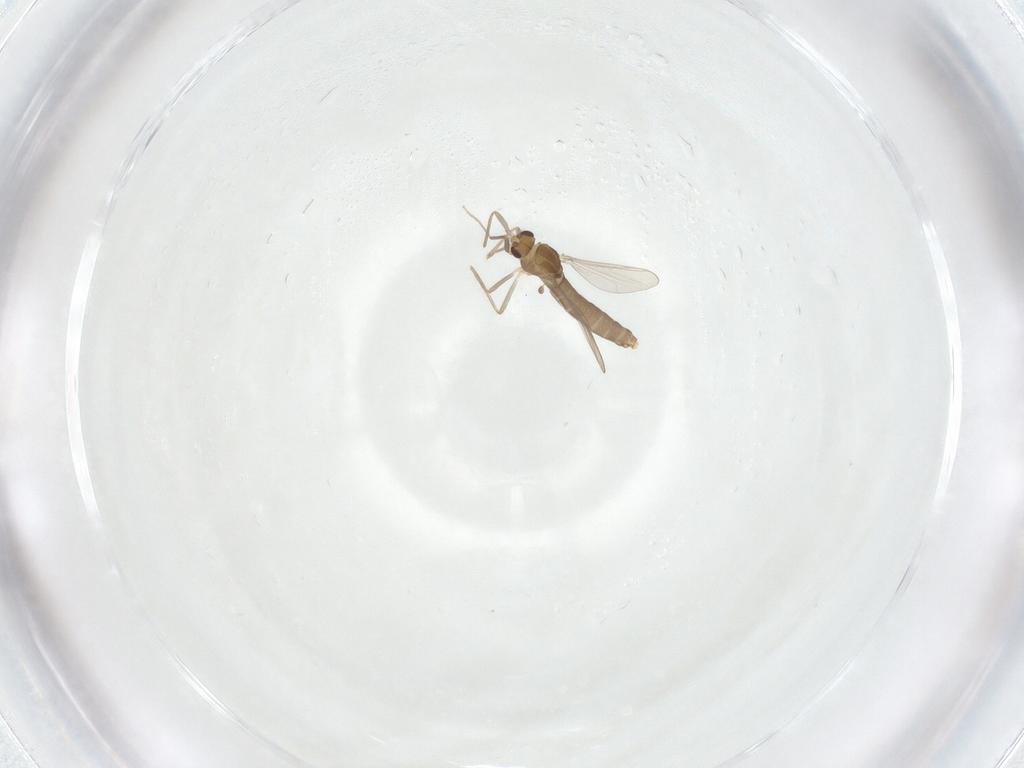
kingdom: Animalia
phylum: Arthropoda
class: Insecta
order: Diptera
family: Ceratopogonidae
